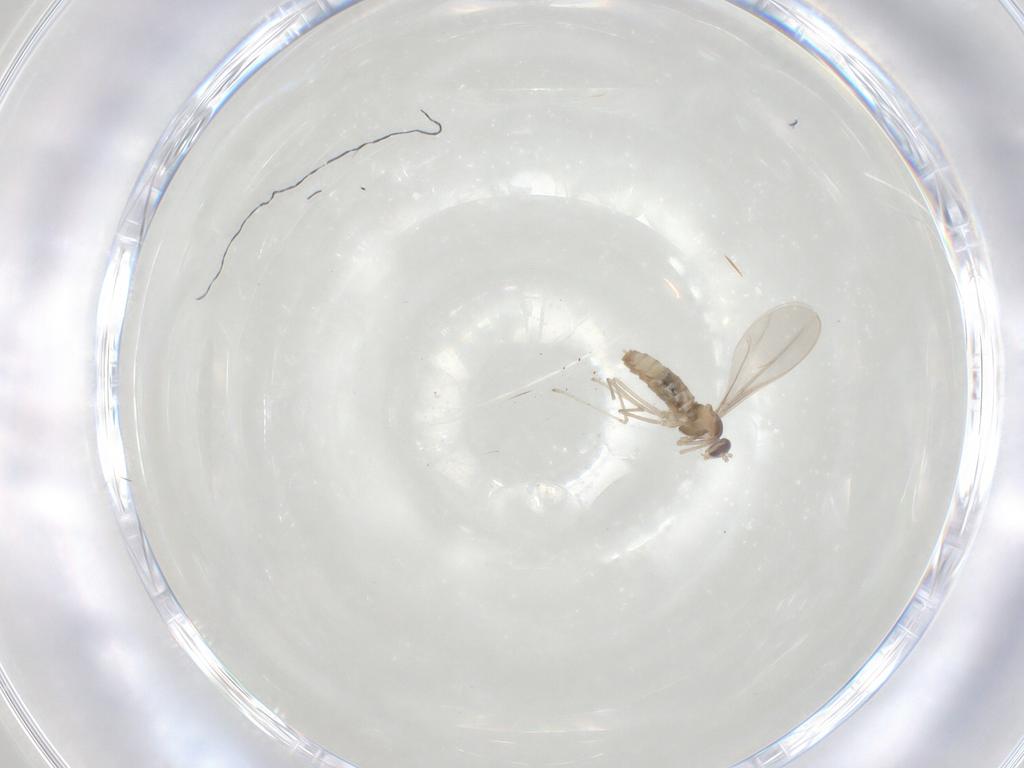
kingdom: Animalia
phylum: Arthropoda
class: Insecta
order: Diptera
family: Cecidomyiidae
